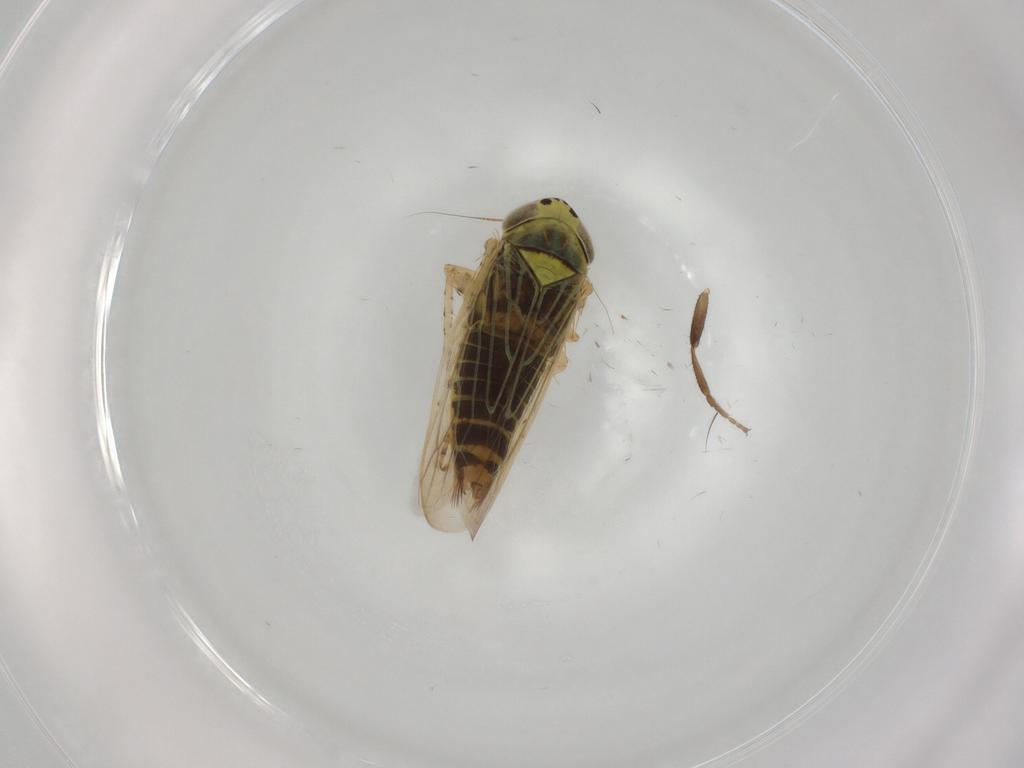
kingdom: Animalia
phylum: Arthropoda
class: Insecta
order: Hemiptera
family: Cicadellidae
